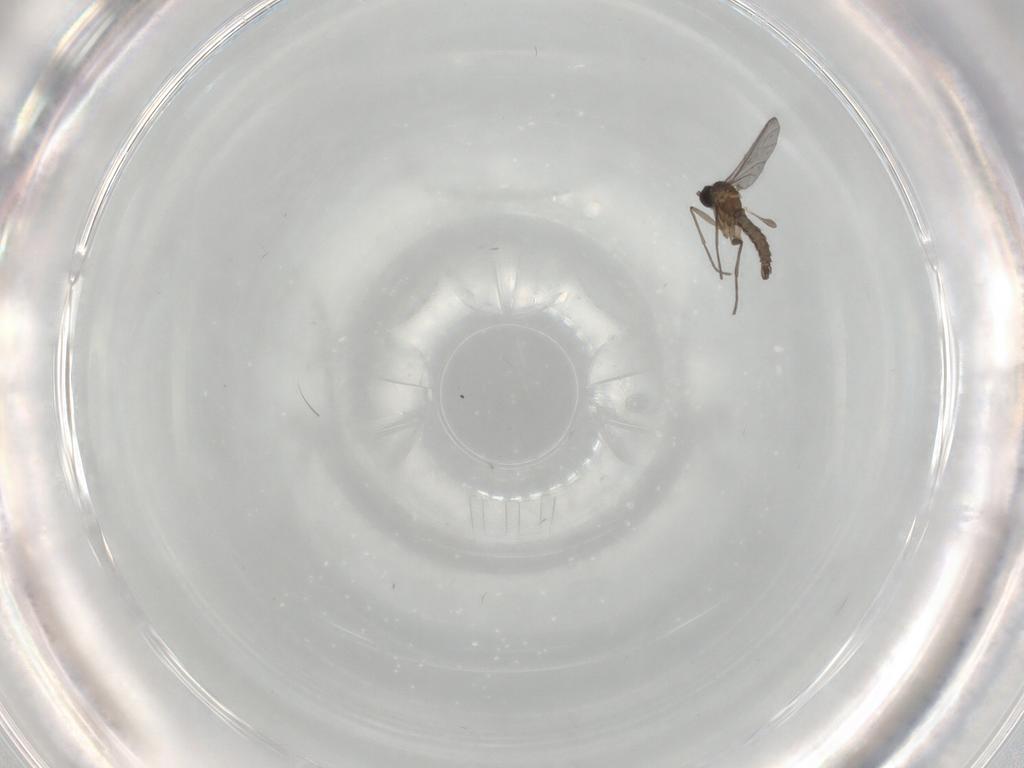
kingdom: Animalia
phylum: Arthropoda
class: Insecta
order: Diptera
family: Sciaridae
